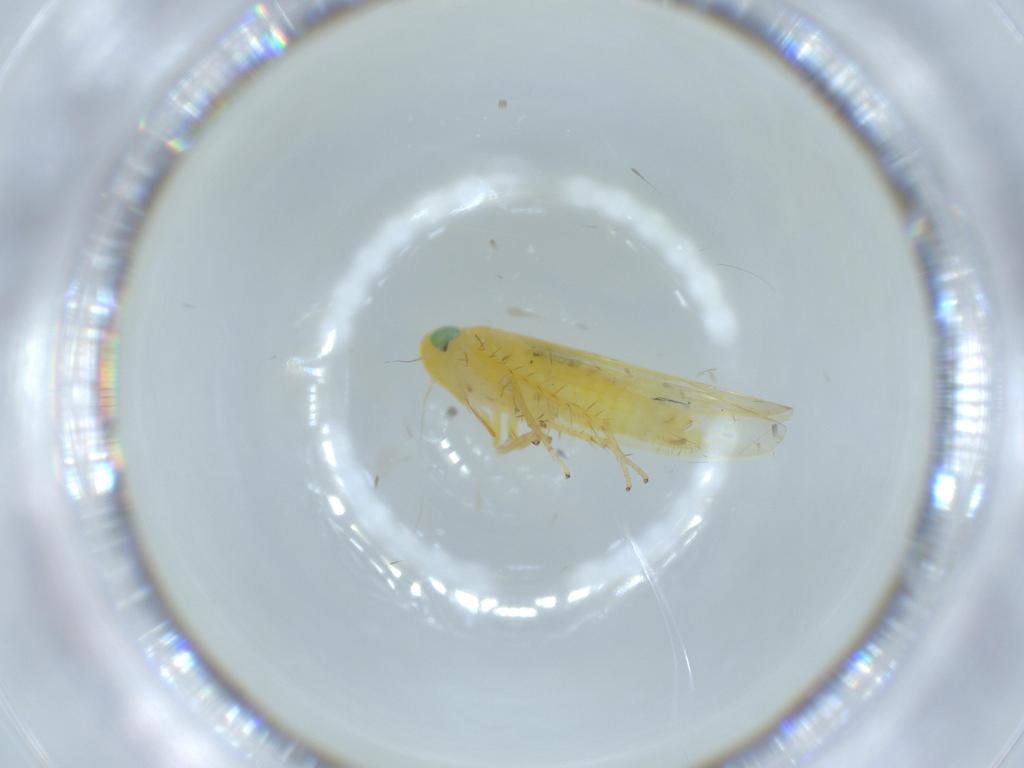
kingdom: Animalia
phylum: Arthropoda
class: Insecta
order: Hemiptera
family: Cicadellidae
